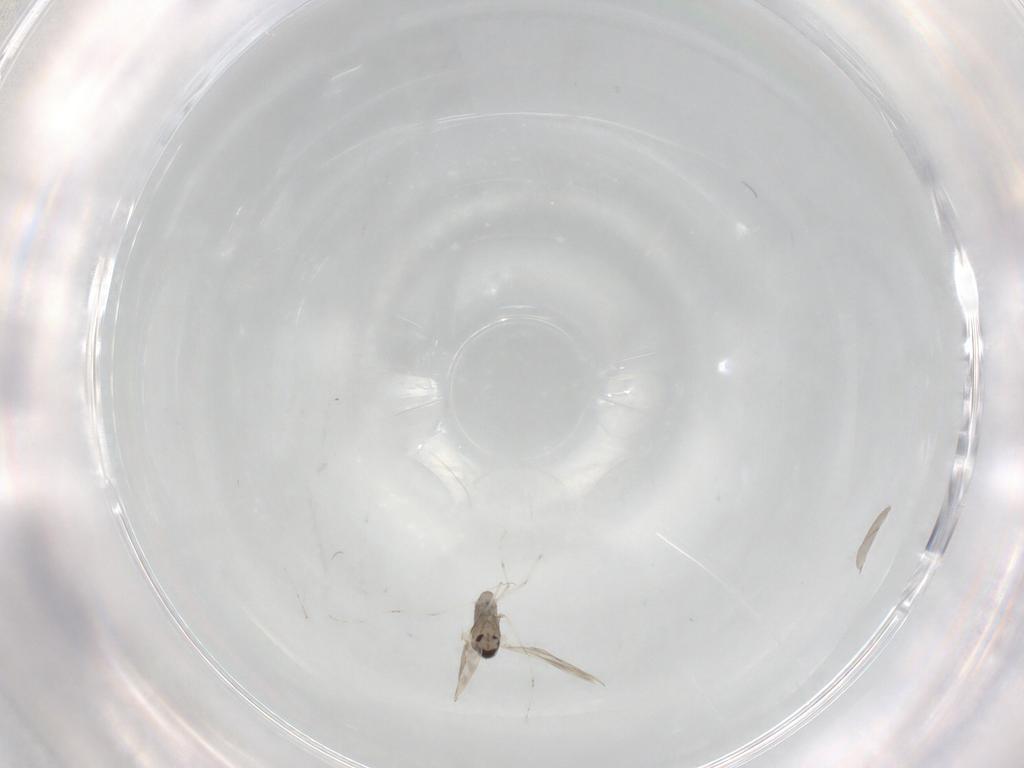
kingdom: Animalia
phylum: Arthropoda
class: Insecta
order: Diptera
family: Cecidomyiidae
